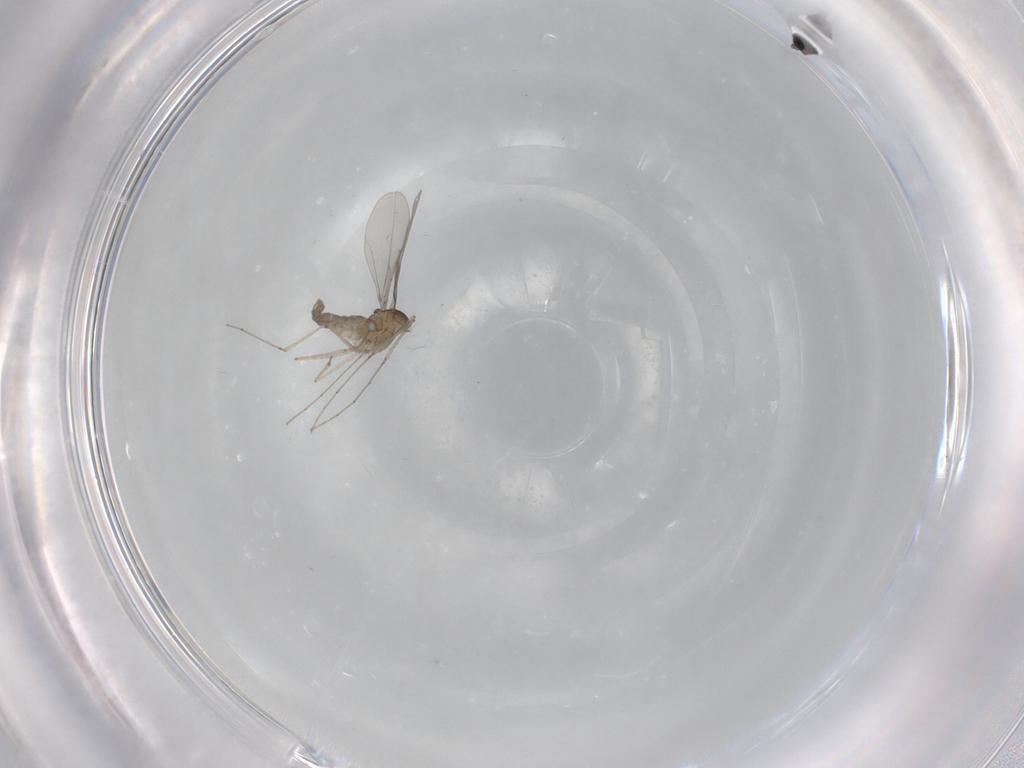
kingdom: Animalia
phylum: Arthropoda
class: Insecta
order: Diptera
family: Cecidomyiidae
